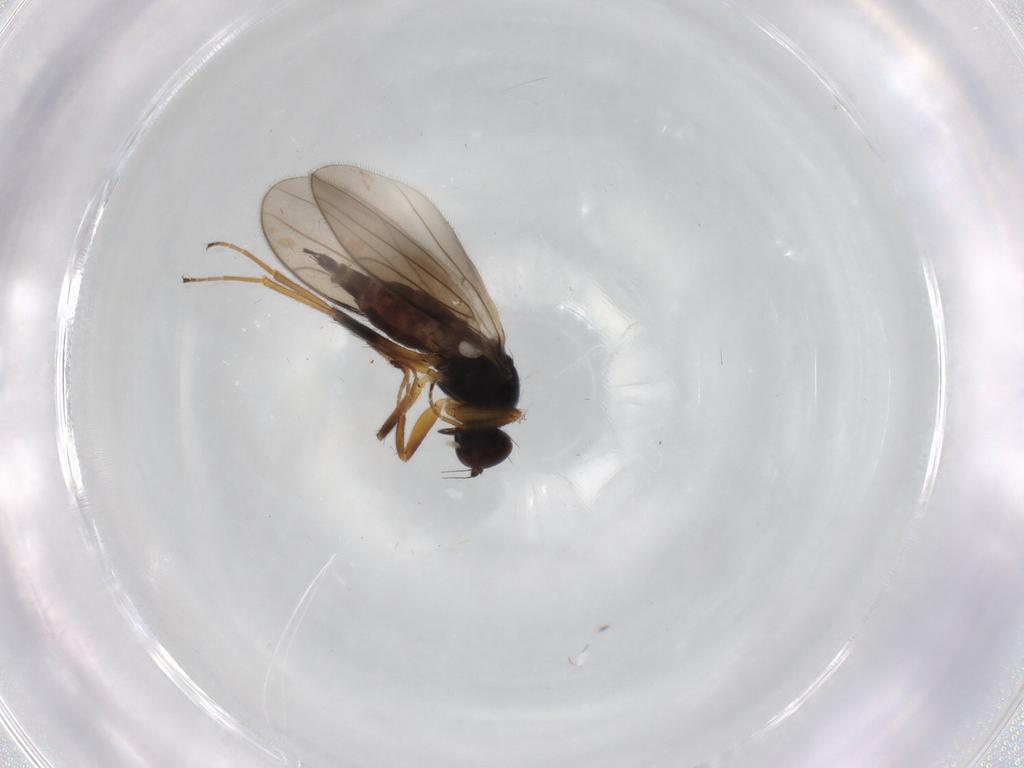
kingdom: Animalia
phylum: Arthropoda
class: Insecta
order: Diptera
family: Hybotidae
